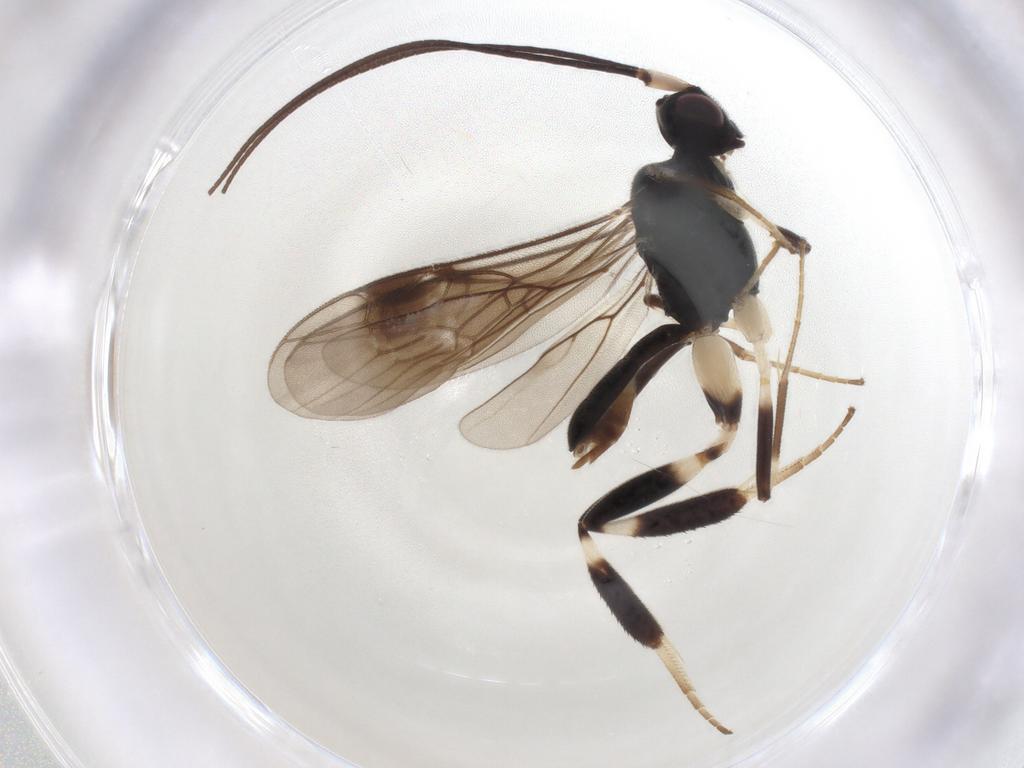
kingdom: Animalia
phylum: Arthropoda
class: Insecta
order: Hymenoptera
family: Braconidae
